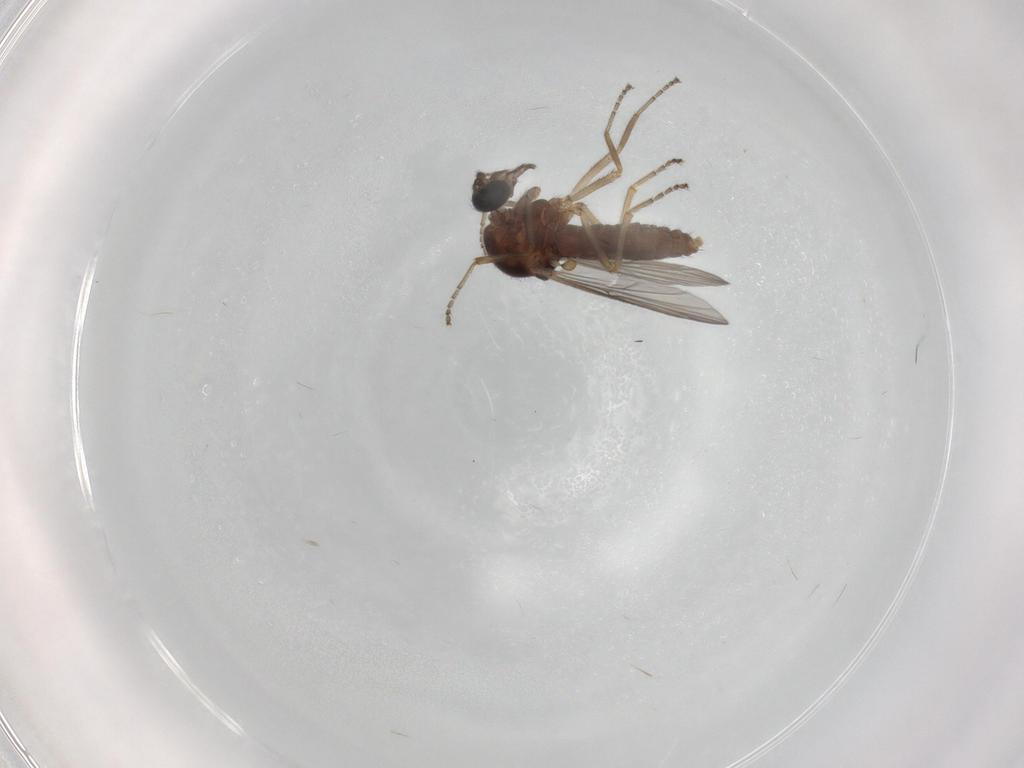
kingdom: Animalia
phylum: Arthropoda
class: Insecta
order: Diptera
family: Ceratopogonidae
